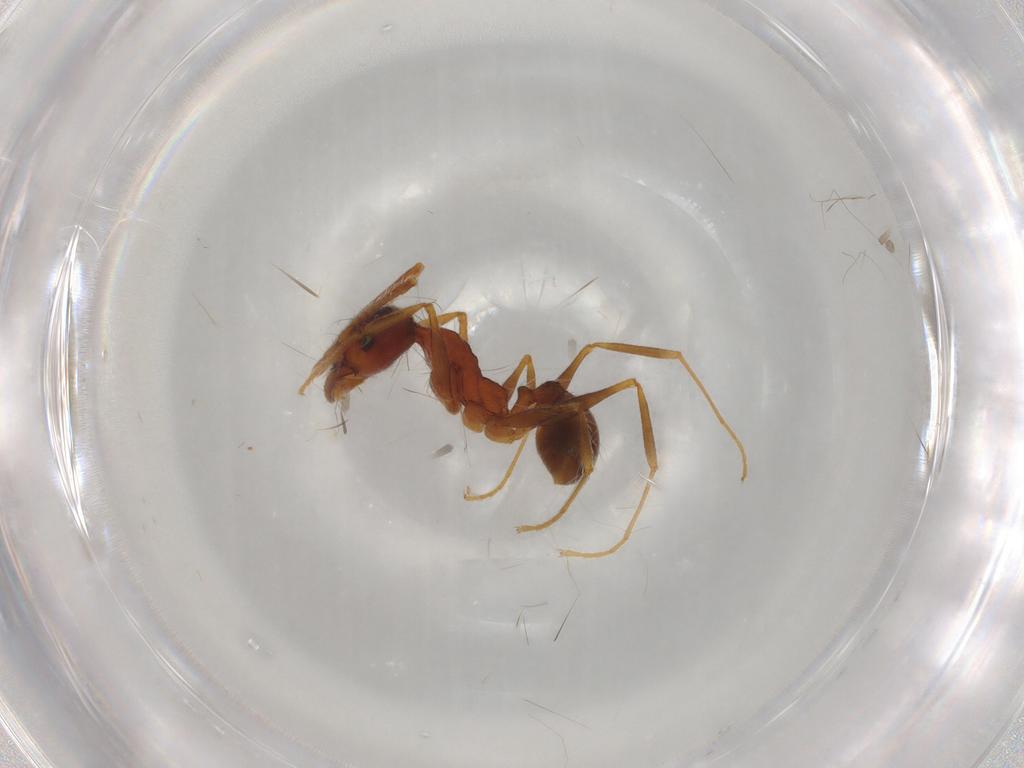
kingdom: Animalia
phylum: Arthropoda
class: Insecta
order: Hymenoptera
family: Formicidae
